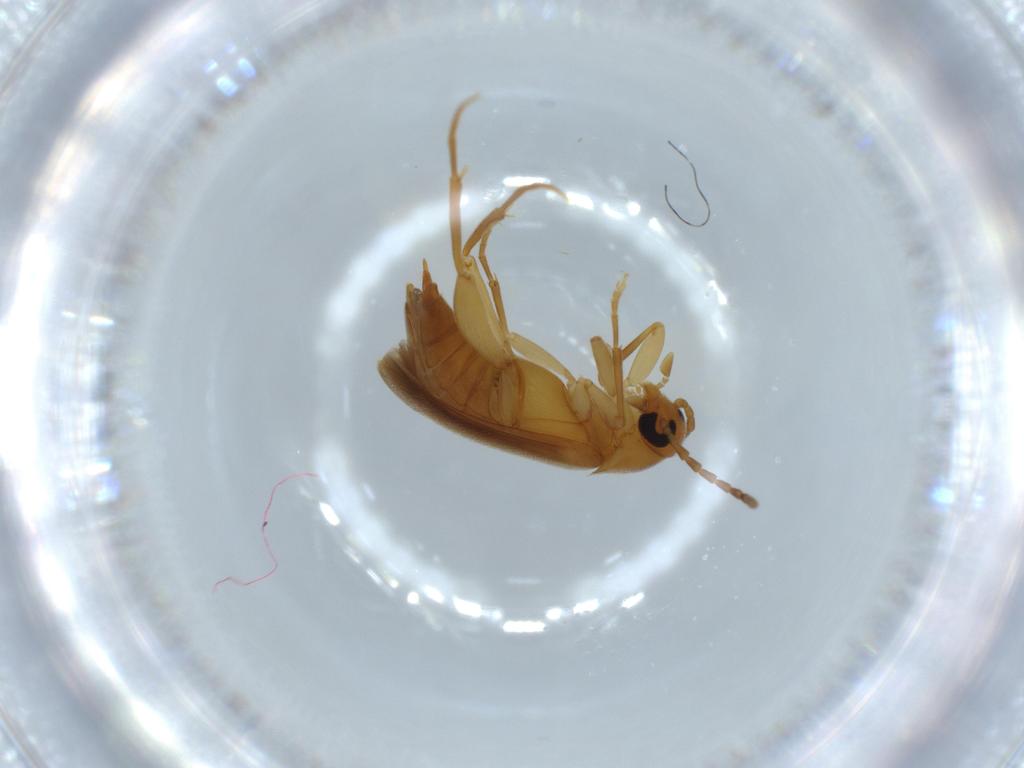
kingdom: Animalia
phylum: Arthropoda
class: Insecta
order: Coleoptera
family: Scraptiidae
